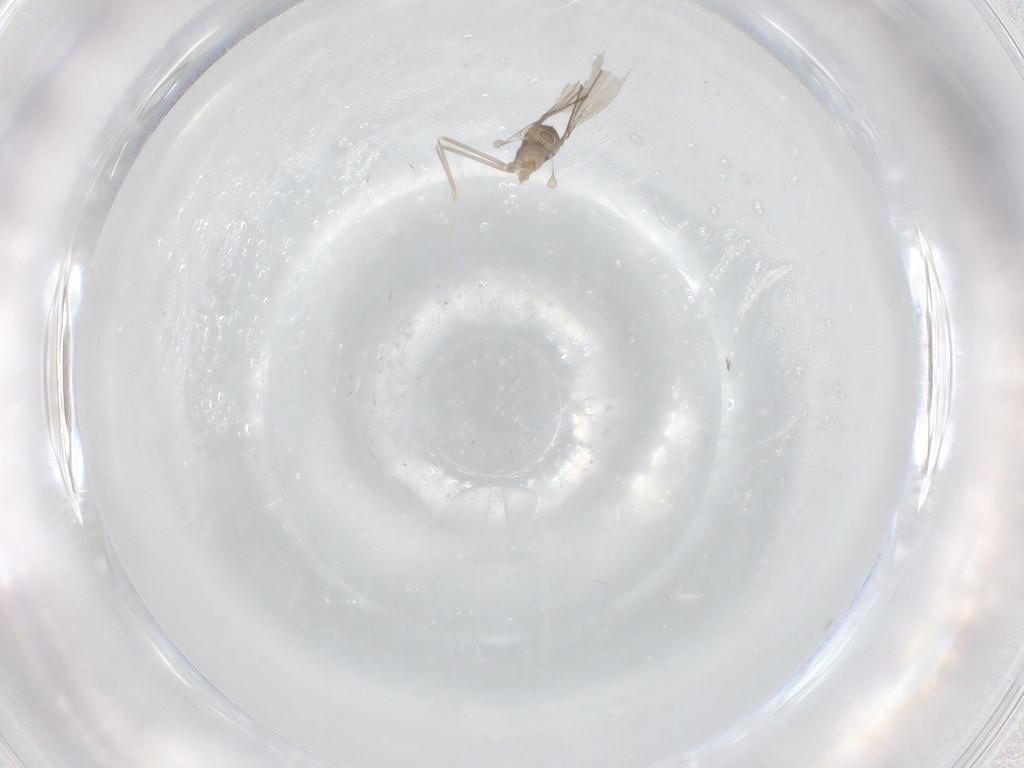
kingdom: Animalia
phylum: Arthropoda
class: Insecta
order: Diptera
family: Cecidomyiidae
